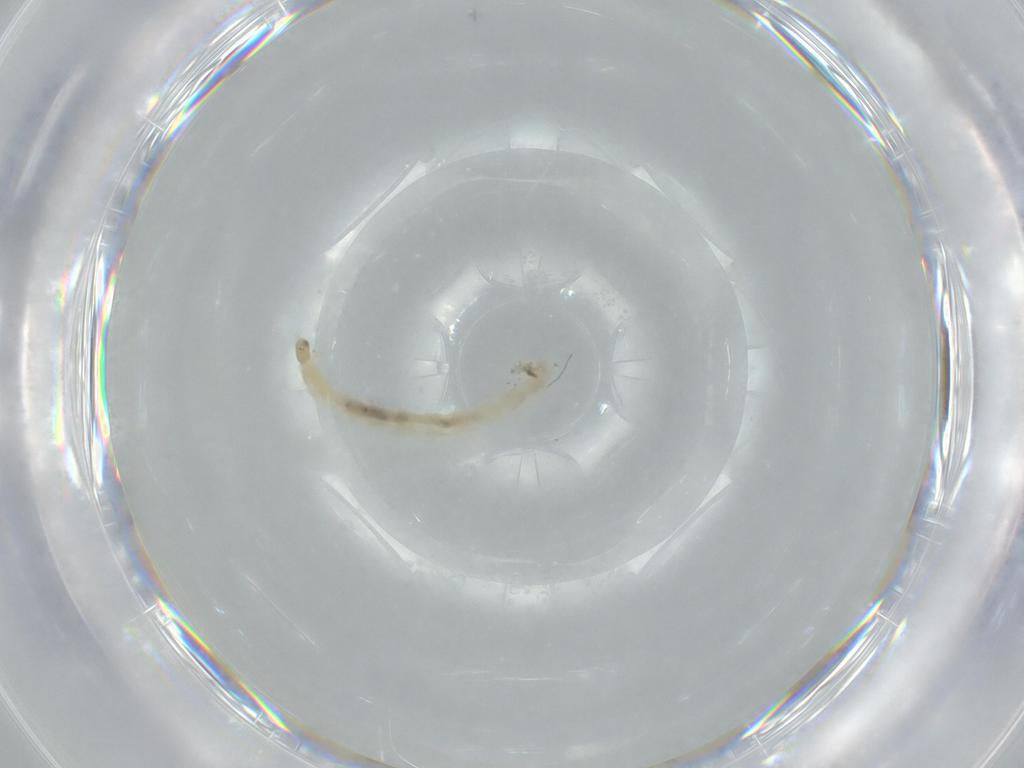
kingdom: Animalia
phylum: Arthropoda
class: Insecta
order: Diptera
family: Chironomidae
